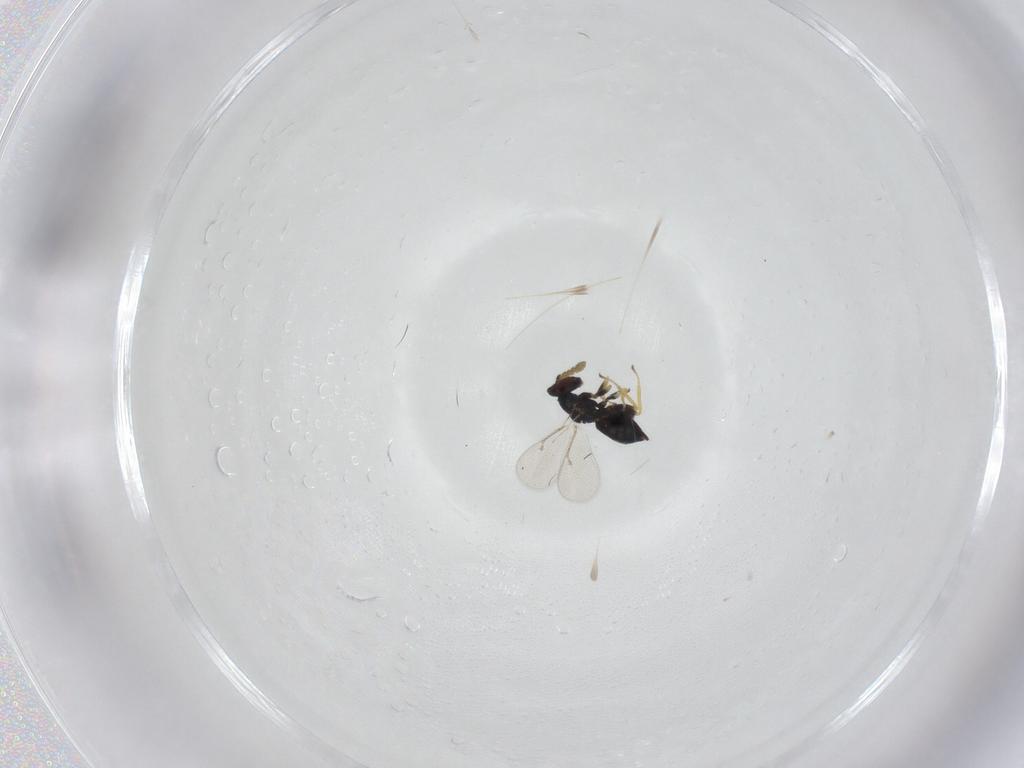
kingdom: Animalia
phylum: Arthropoda
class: Insecta
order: Hymenoptera
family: Eulophidae
